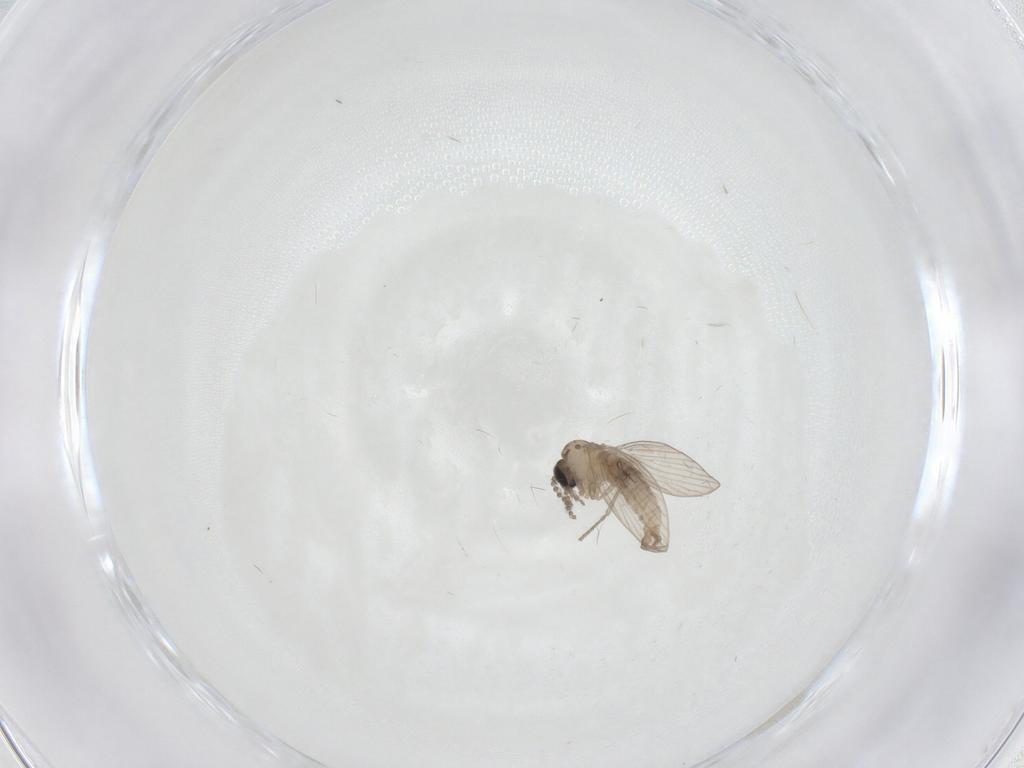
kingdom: Animalia
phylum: Arthropoda
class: Insecta
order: Diptera
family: Psychodidae
